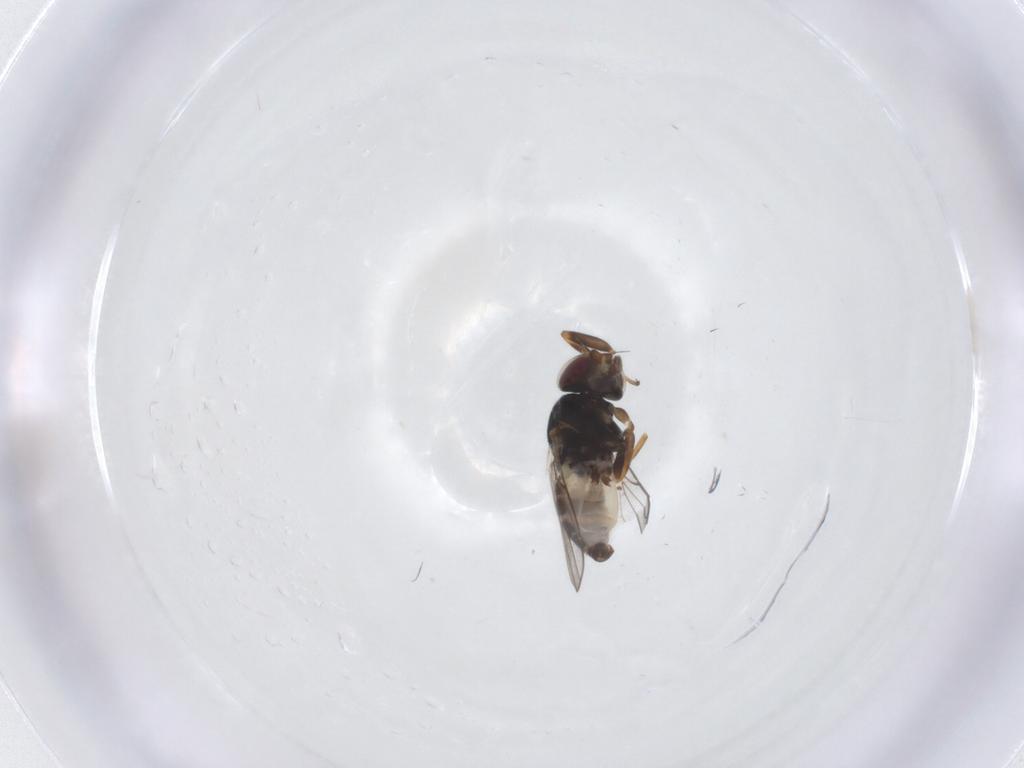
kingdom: Animalia
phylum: Arthropoda
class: Insecta
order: Diptera
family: Chloropidae
